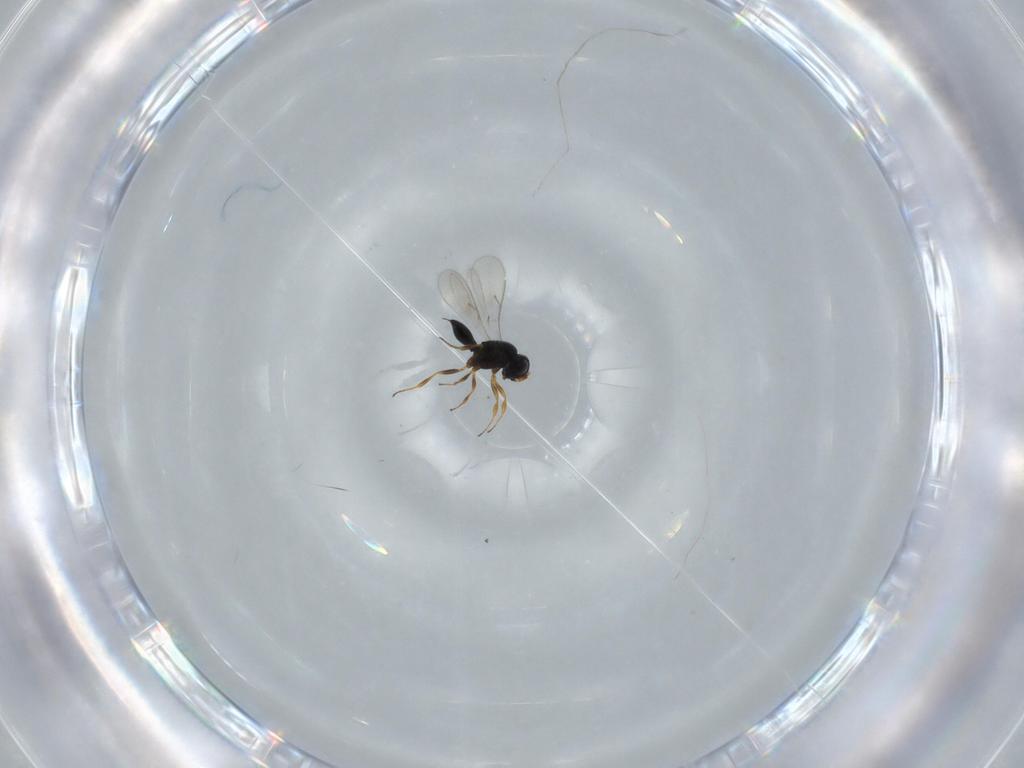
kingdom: Animalia
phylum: Arthropoda
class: Insecta
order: Hymenoptera
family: Scelionidae
